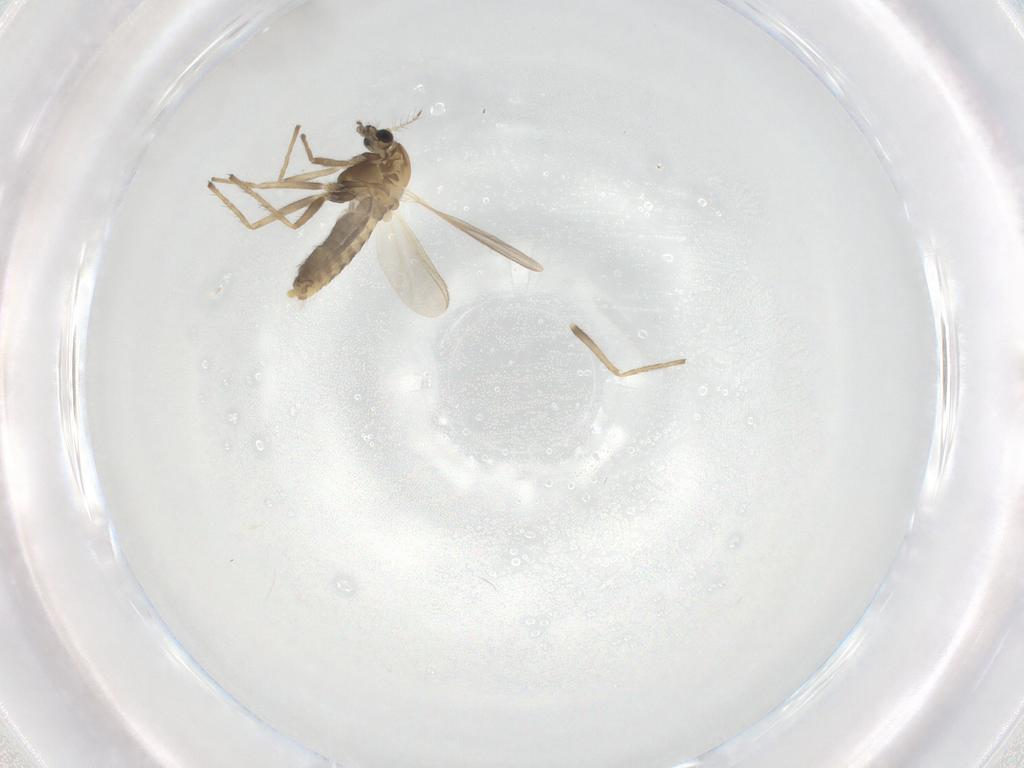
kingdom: Animalia
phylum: Arthropoda
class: Insecta
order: Diptera
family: Chironomidae
